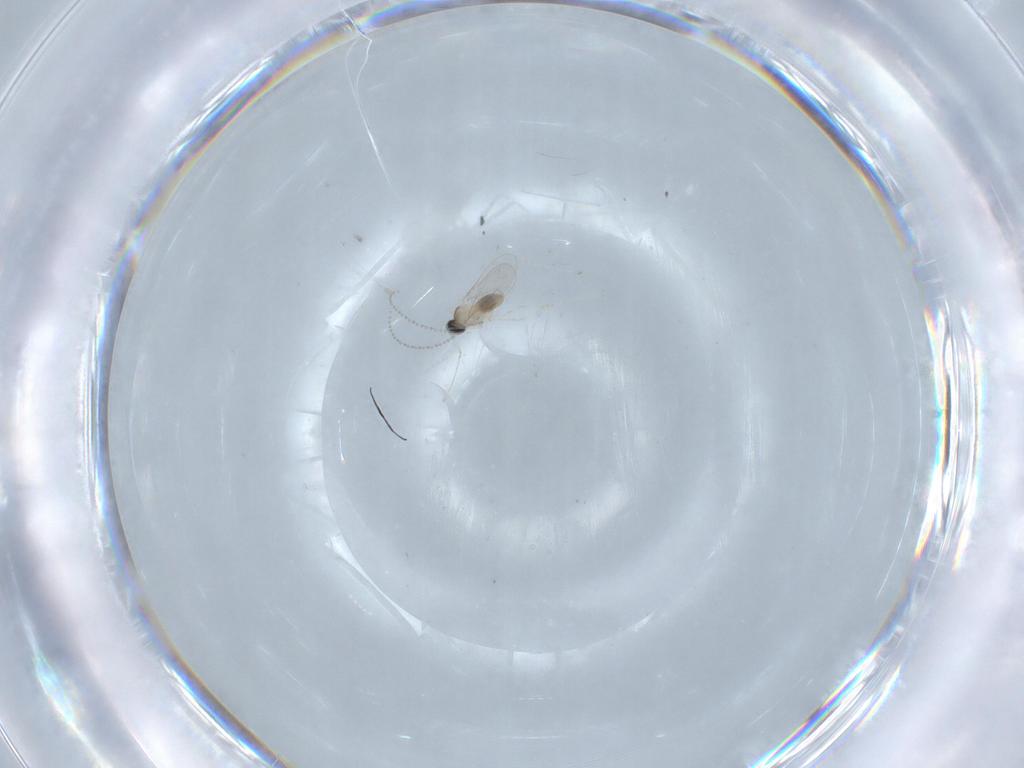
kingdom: Animalia
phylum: Arthropoda
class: Insecta
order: Diptera
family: Cecidomyiidae
